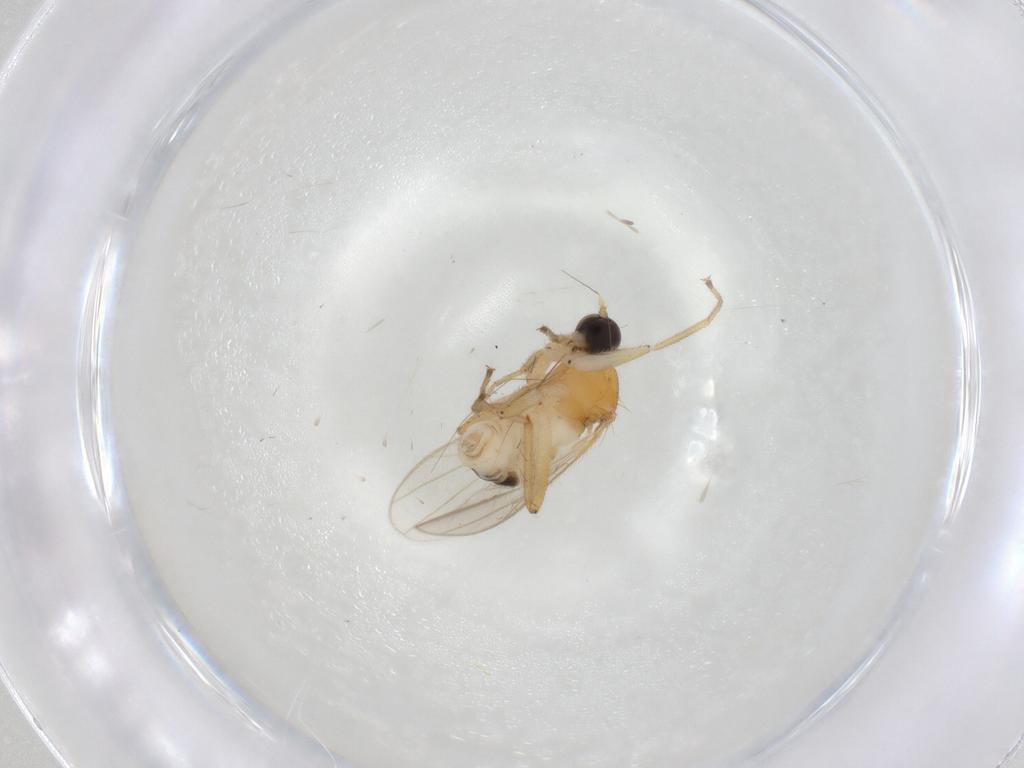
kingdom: Animalia
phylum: Arthropoda
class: Insecta
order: Diptera
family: Hybotidae
